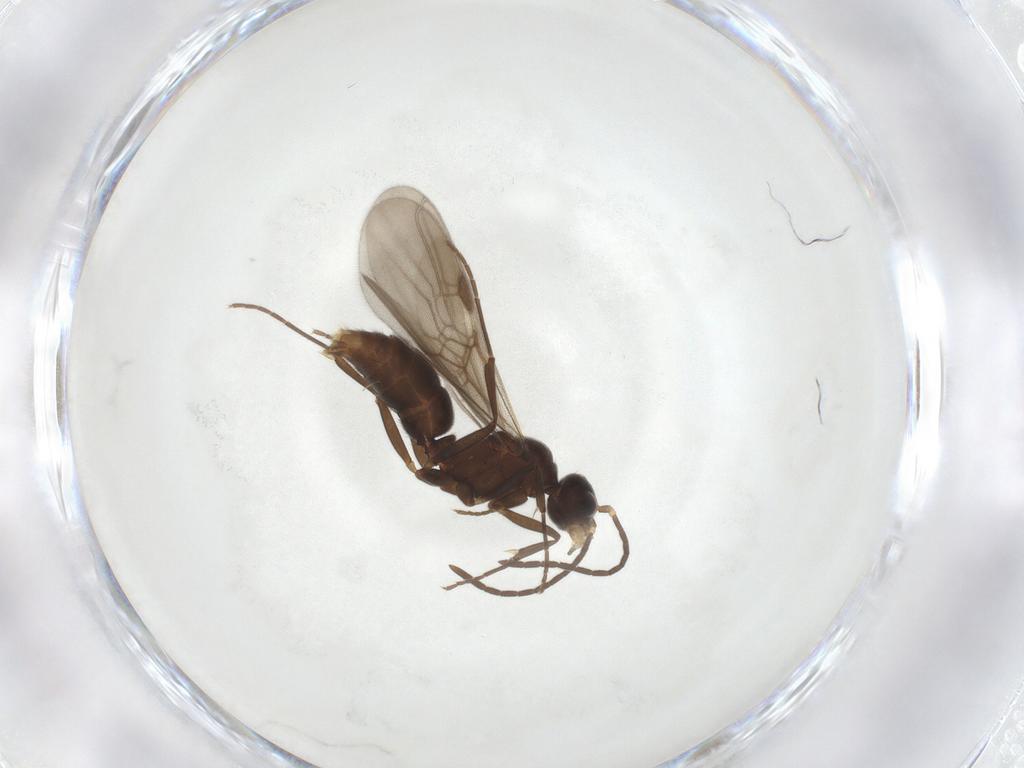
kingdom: Animalia
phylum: Arthropoda
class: Insecta
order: Hymenoptera
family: Formicidae
